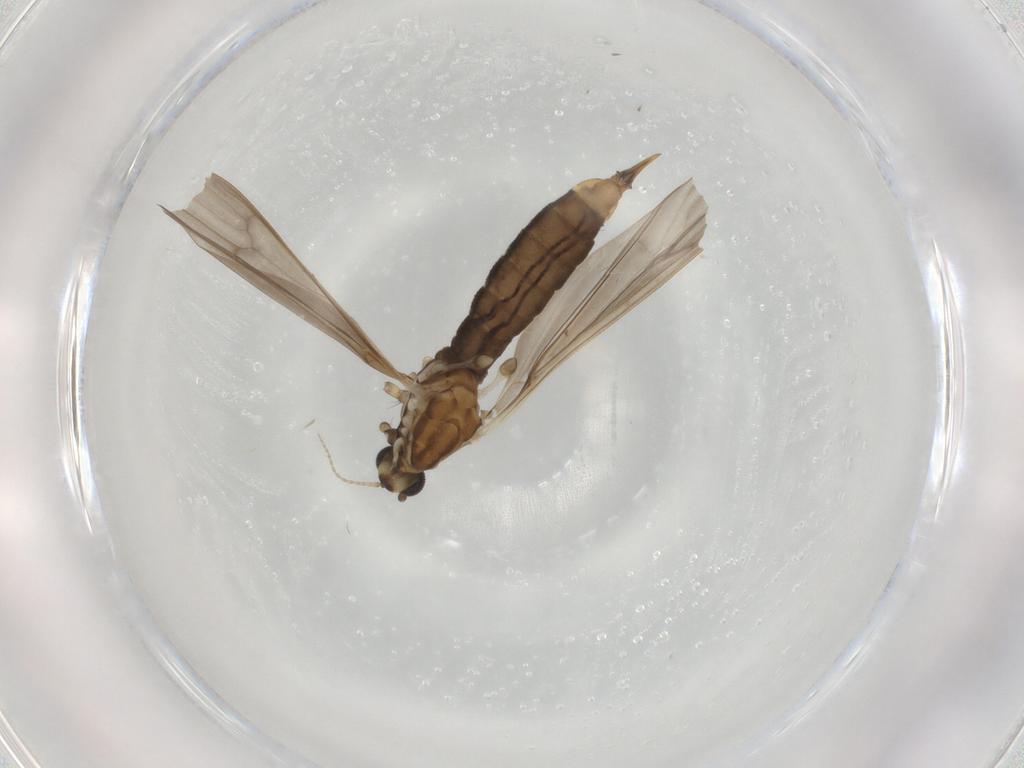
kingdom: Animalia
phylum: Arthropoda
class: Insecta
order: Diptera
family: Limoniidae
